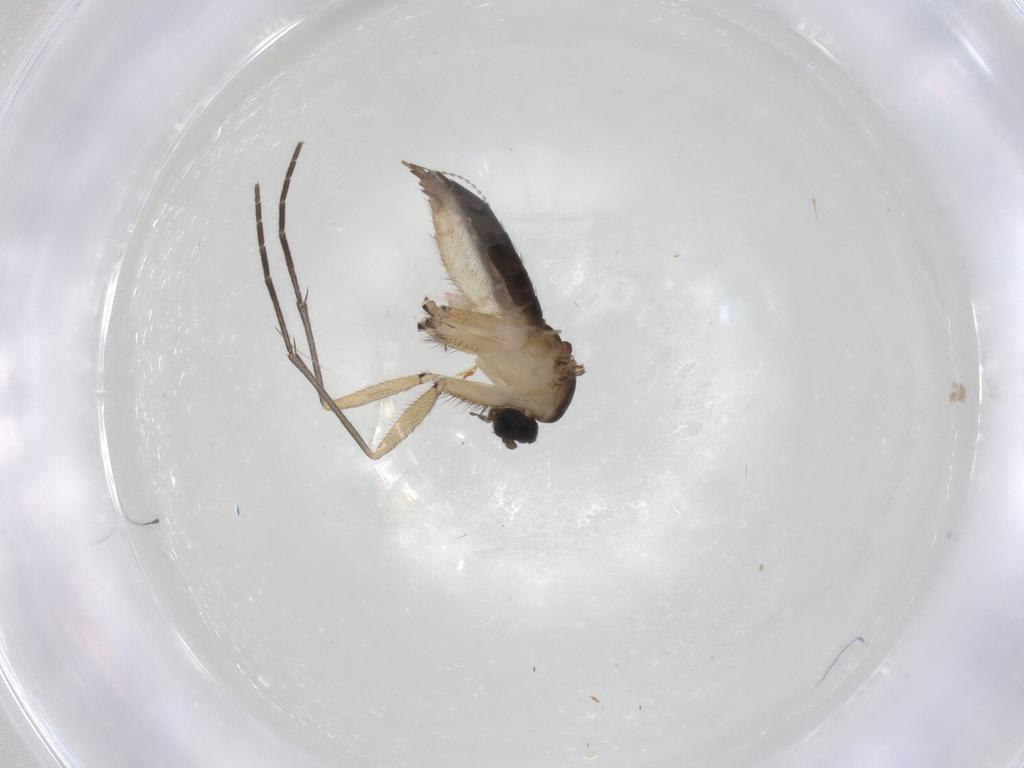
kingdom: Animalia
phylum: Arthropoda
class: Insecta
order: Diptera
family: Sciaridae
